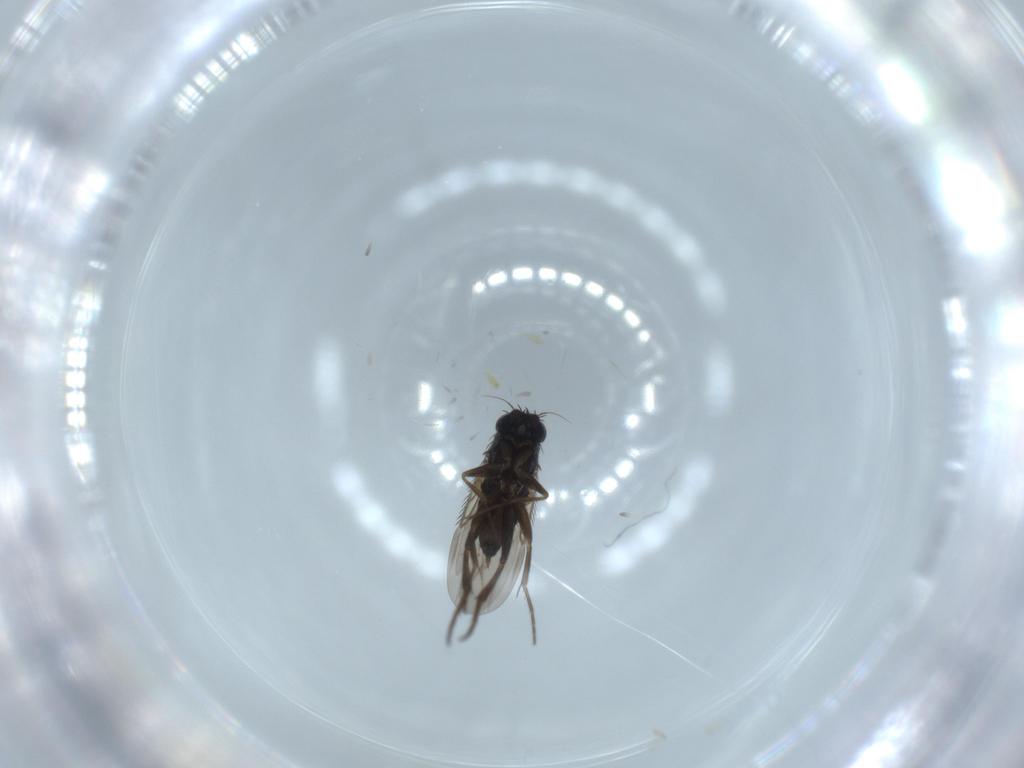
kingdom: Animalia
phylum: Arthropoda
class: Insecta
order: Diptera
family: Phoridae
